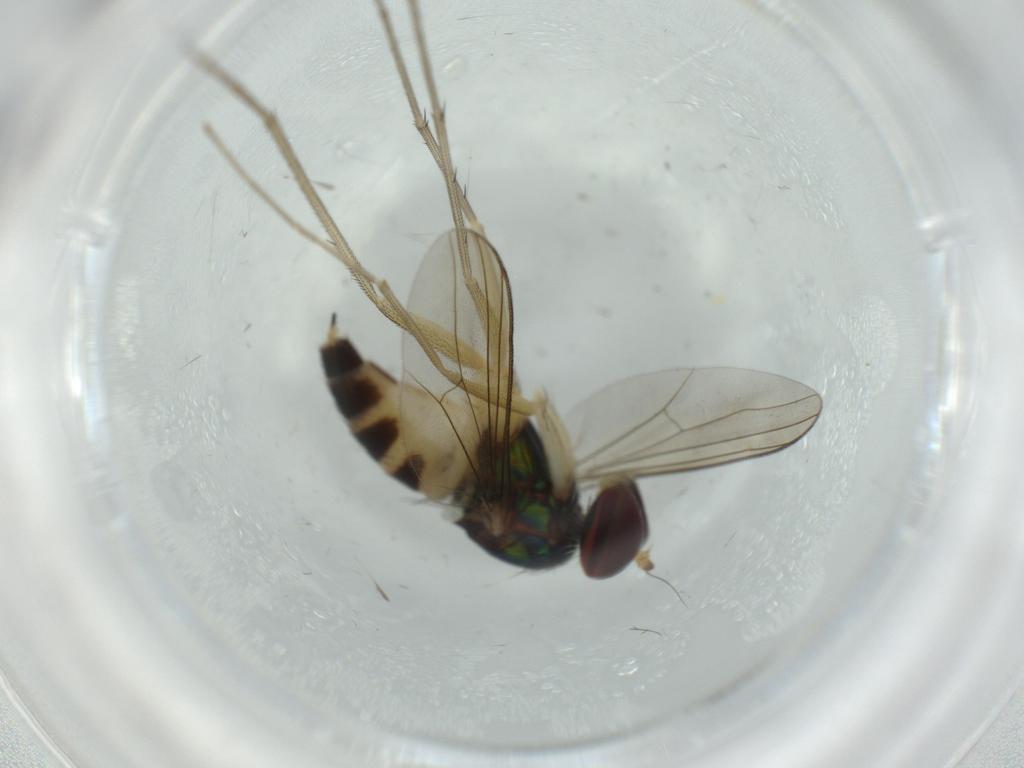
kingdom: Animalia
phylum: Arthropoda
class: Insecta
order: Diptera
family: Dolichopodidae
